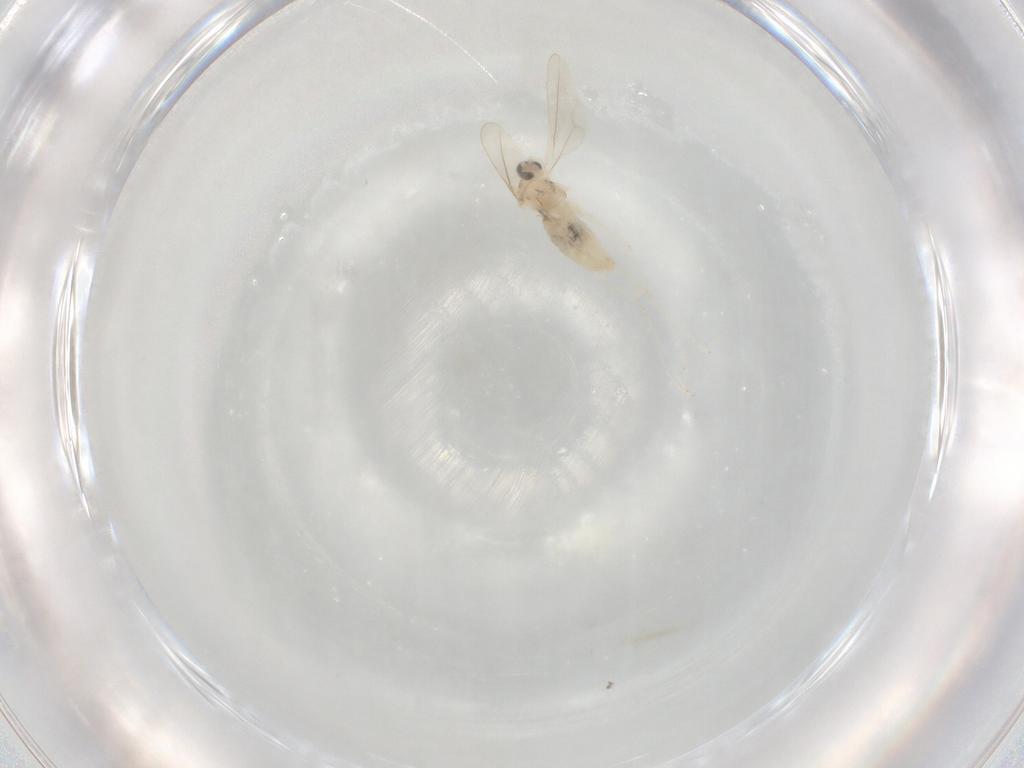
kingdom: Animalia
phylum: Arthropoda
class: Insecta
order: Diptera
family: Cecidomyiidae
